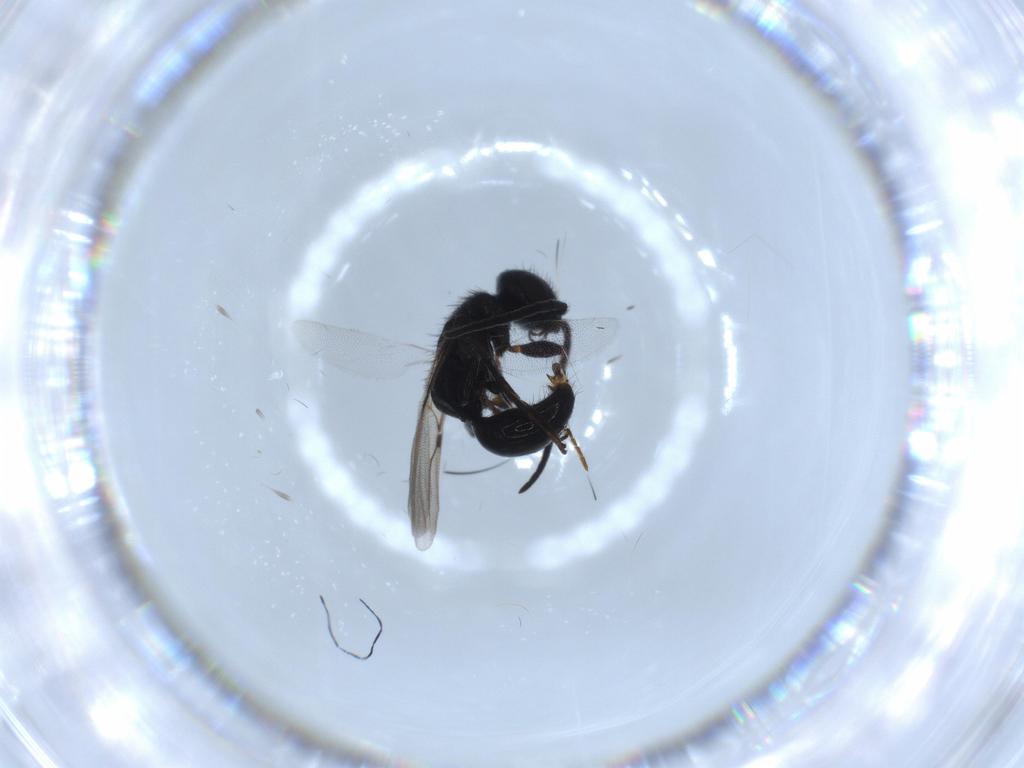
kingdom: Animalia
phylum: Arthropoda
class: Insecta
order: Hymenoptera
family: Bethylidae
